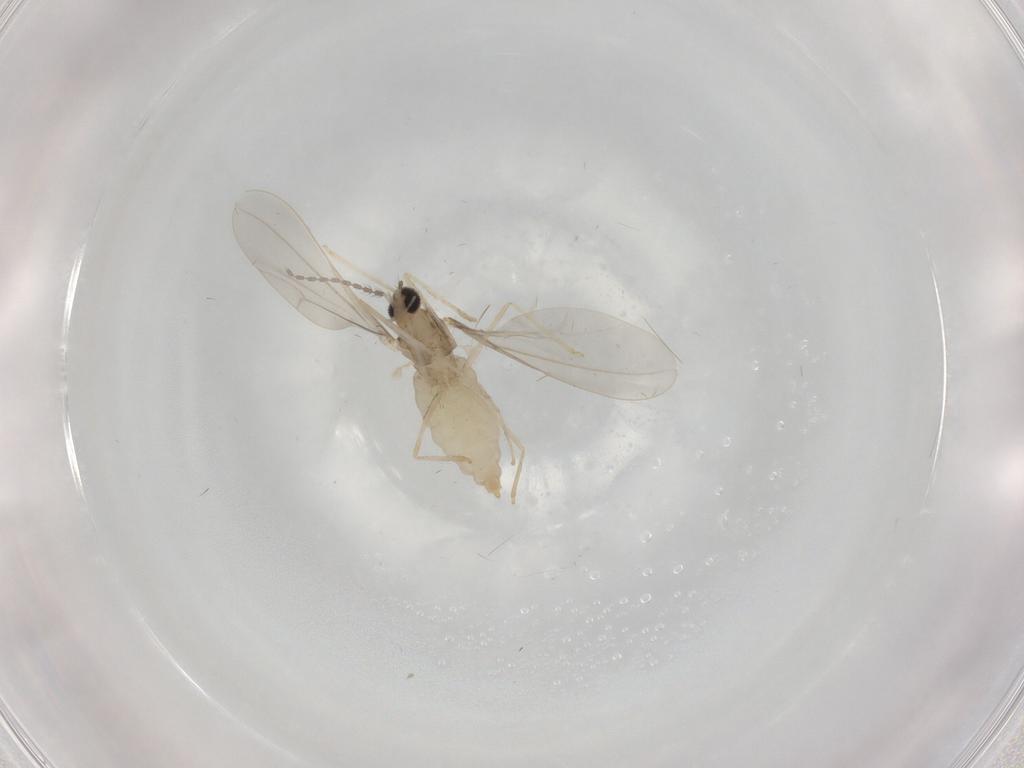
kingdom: Animalia
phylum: Arthropoda
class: Insecta
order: Diptera
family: Cecidomyiidae
